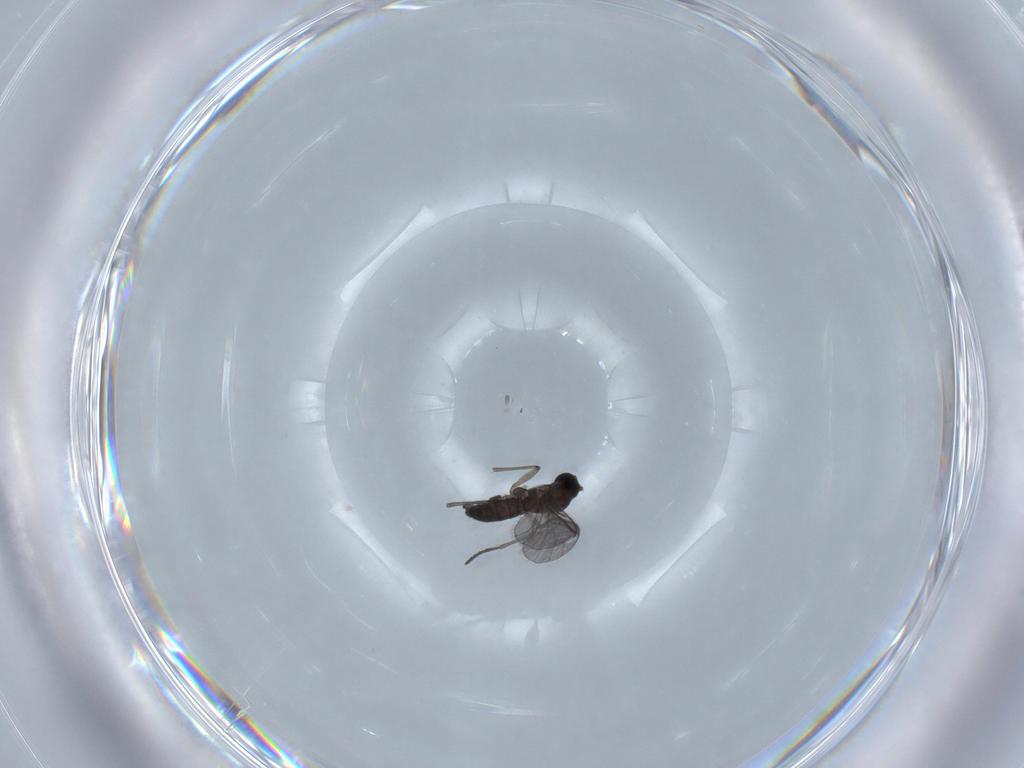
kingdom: Animalia
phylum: Arthropoda
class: Insecta
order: Diptera
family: Sciaridae
